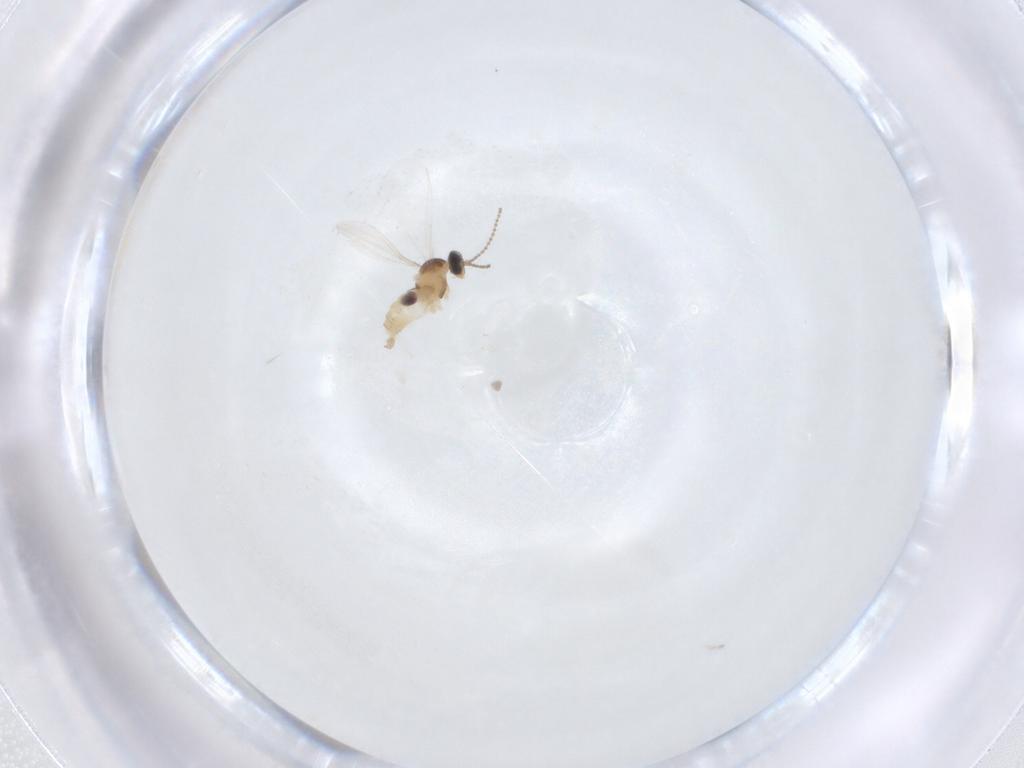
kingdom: Animalia
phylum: Arthropoda
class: Insecta
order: Diptera
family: Cecidomyiidae
